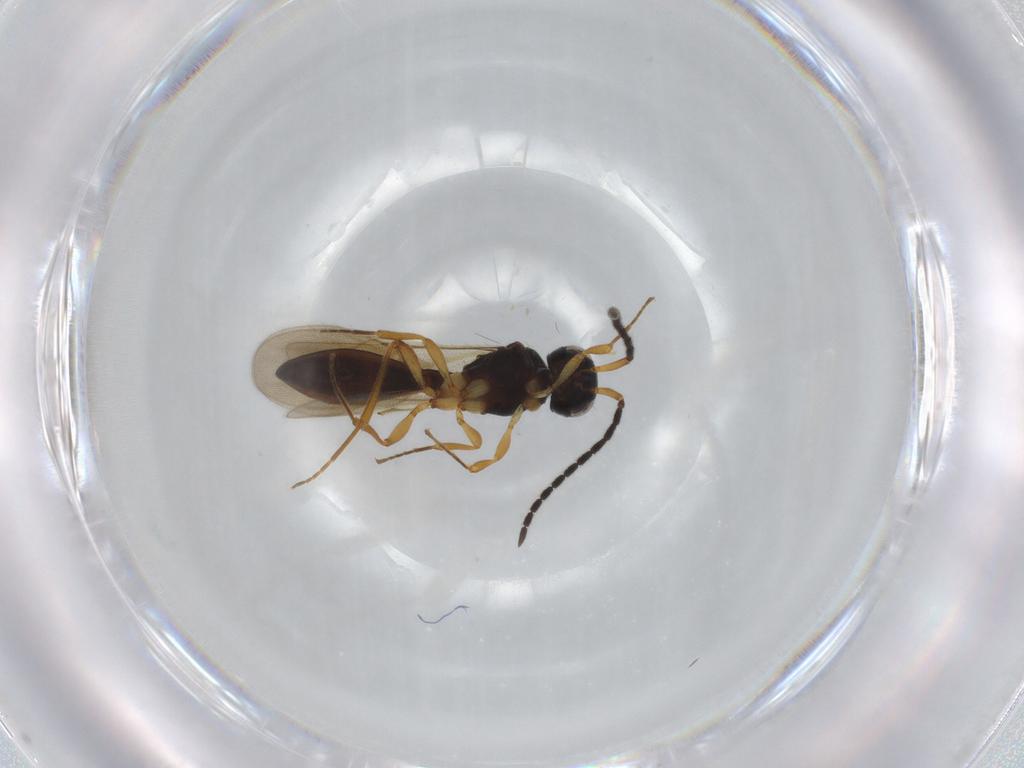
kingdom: Animalia
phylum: Arthropoda
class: Insecta
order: Hymenoptera
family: Scelionidae
